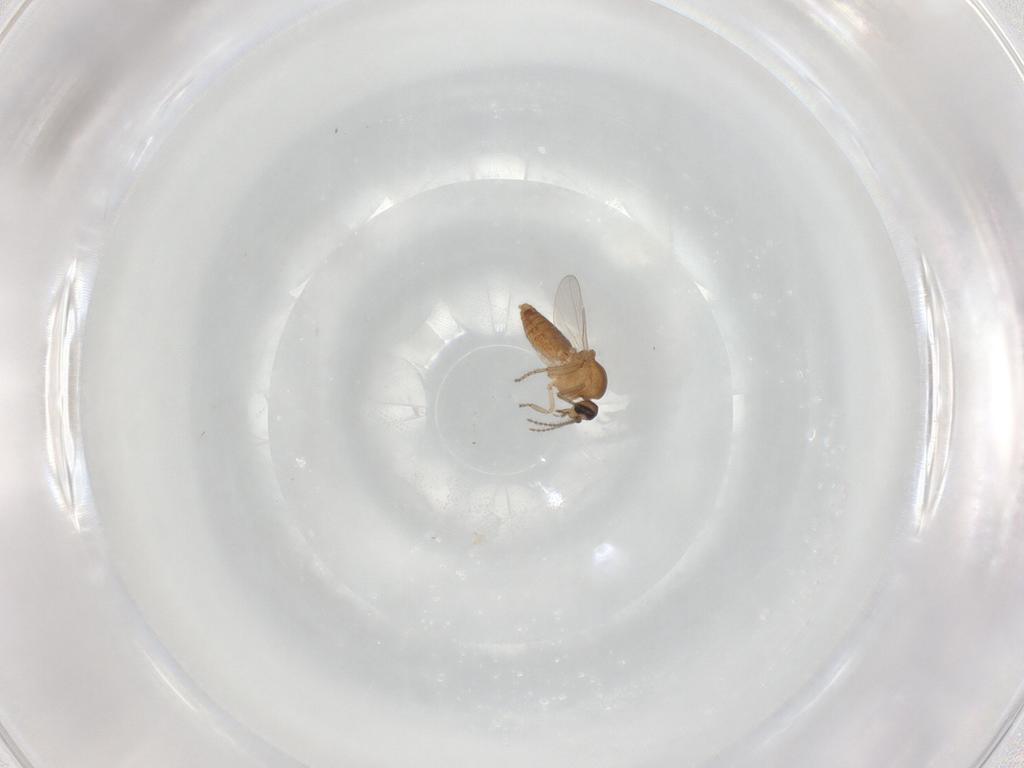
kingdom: Animalia
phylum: Arthropoda
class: Insecta
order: Diptera
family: Ceratopogonidae
